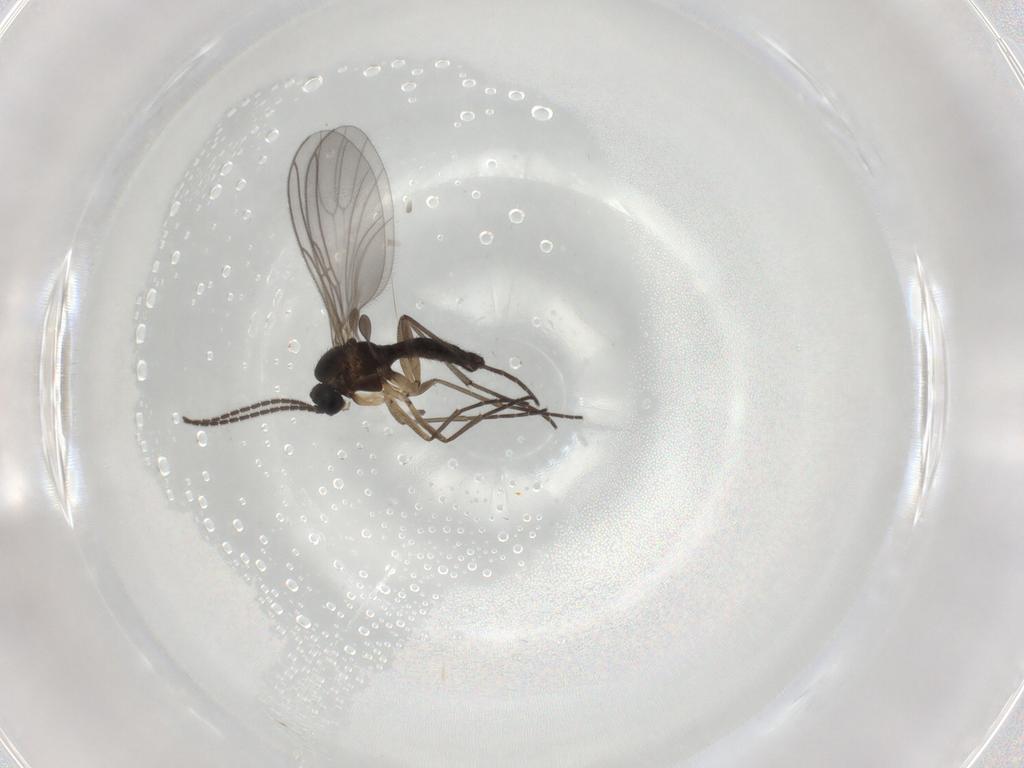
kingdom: Animalia
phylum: Arthropoda
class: Insecta
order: Diptera
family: Sciaridae
